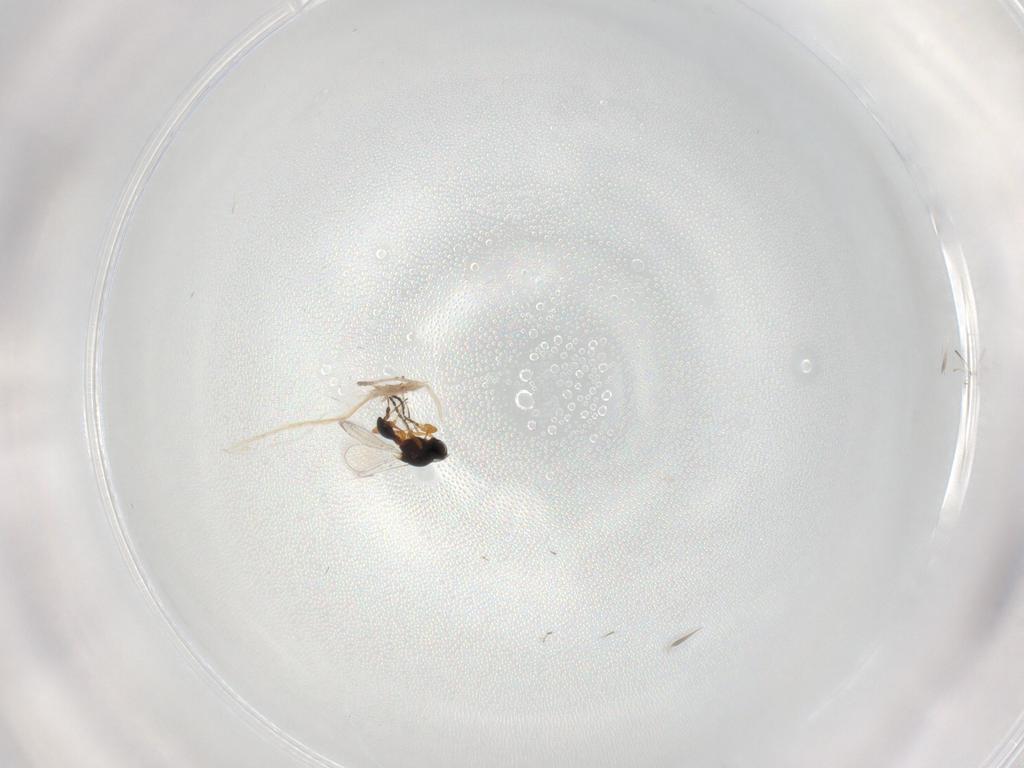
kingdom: Animalia
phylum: Arthropoda
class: Insecta
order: Hymenoptera
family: Platygastridae
